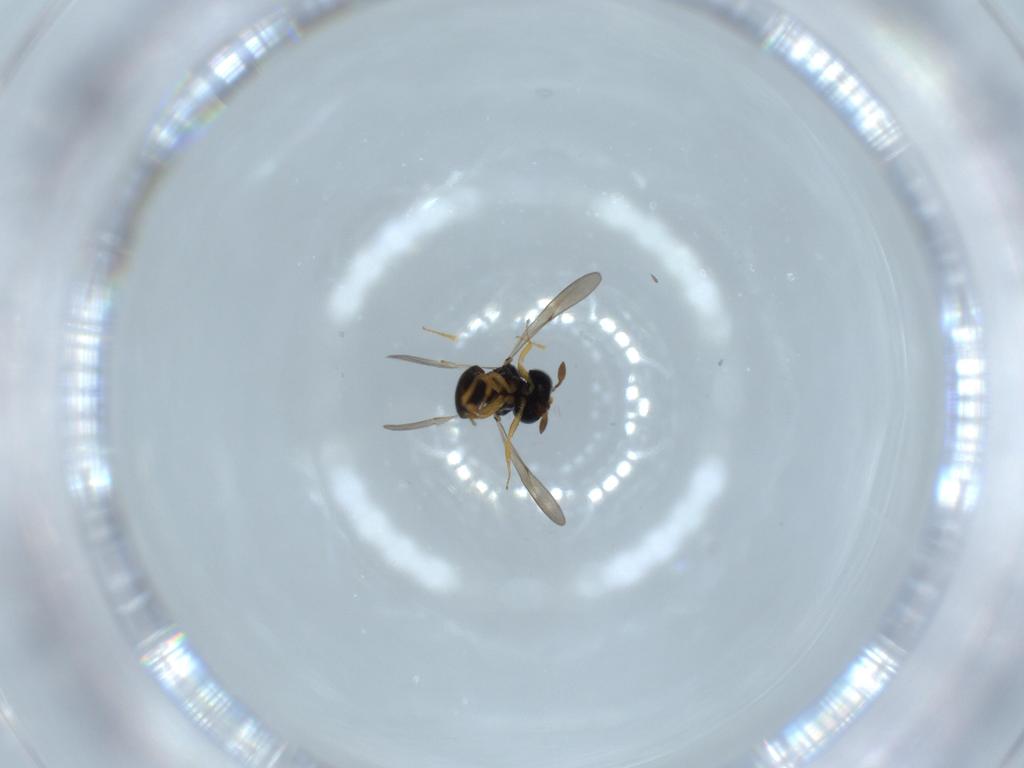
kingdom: Animalia
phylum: Arthropoda
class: Insecta
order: Hymenoptera
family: Scelionidae
